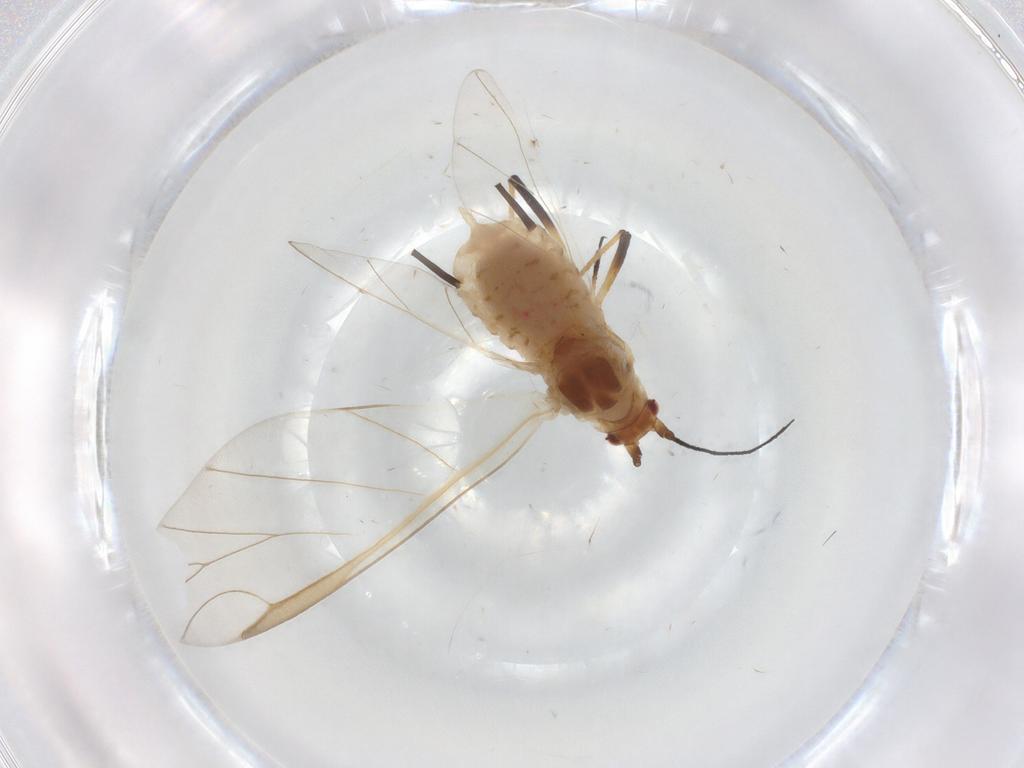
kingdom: Animalia
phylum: Arthropoda
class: Insecta
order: Hemiptera
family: Aphididae
